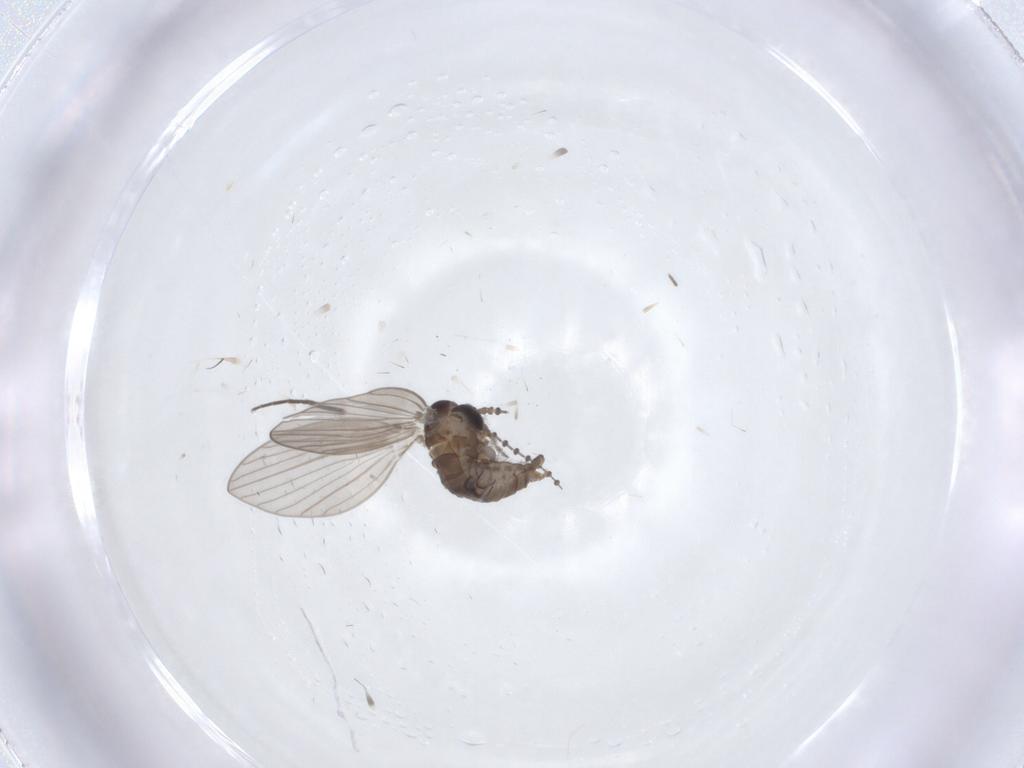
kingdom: Animalia
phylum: Arthropoda
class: Insecta
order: Diptera
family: Psychodidae
